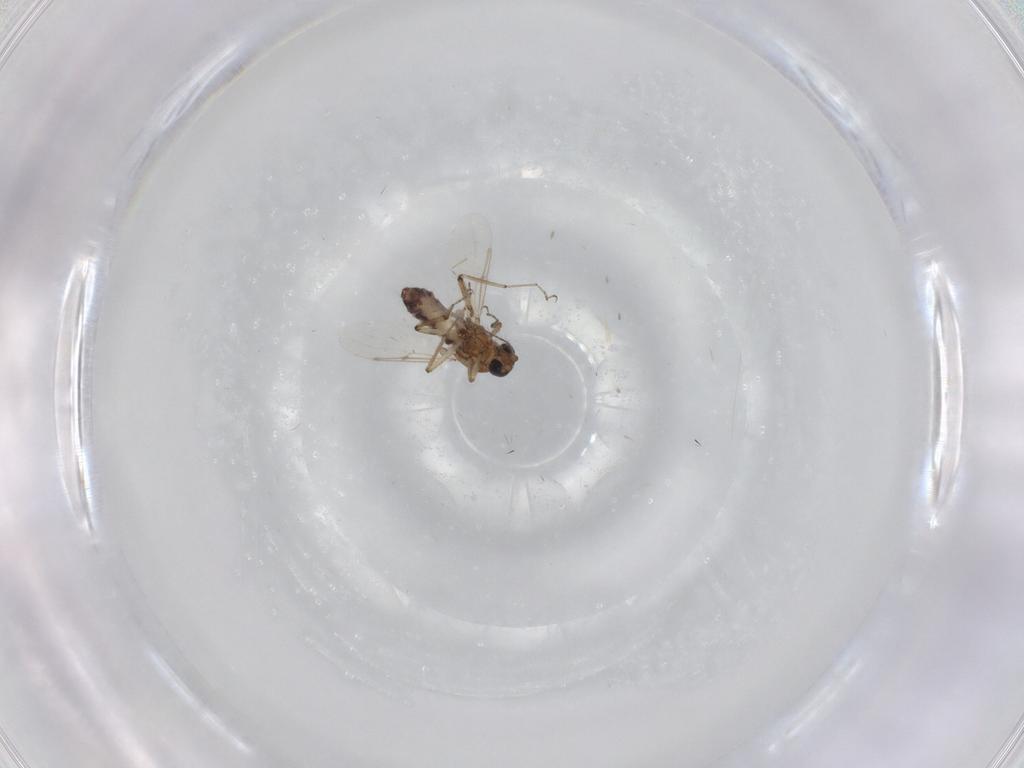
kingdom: Animalia
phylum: Arthropoda
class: Insecta
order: Diptera
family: Ceratopogonidae
